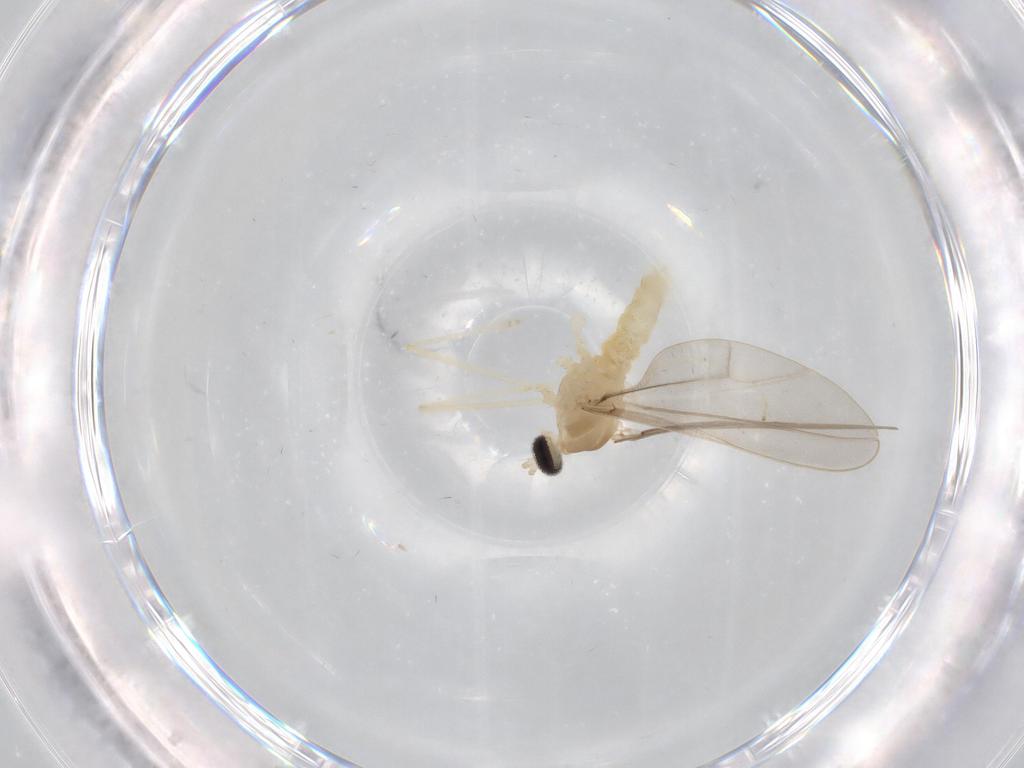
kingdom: Animalia
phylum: Arthropoda
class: Insecta
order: Diptera
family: Cecidomyiidae
